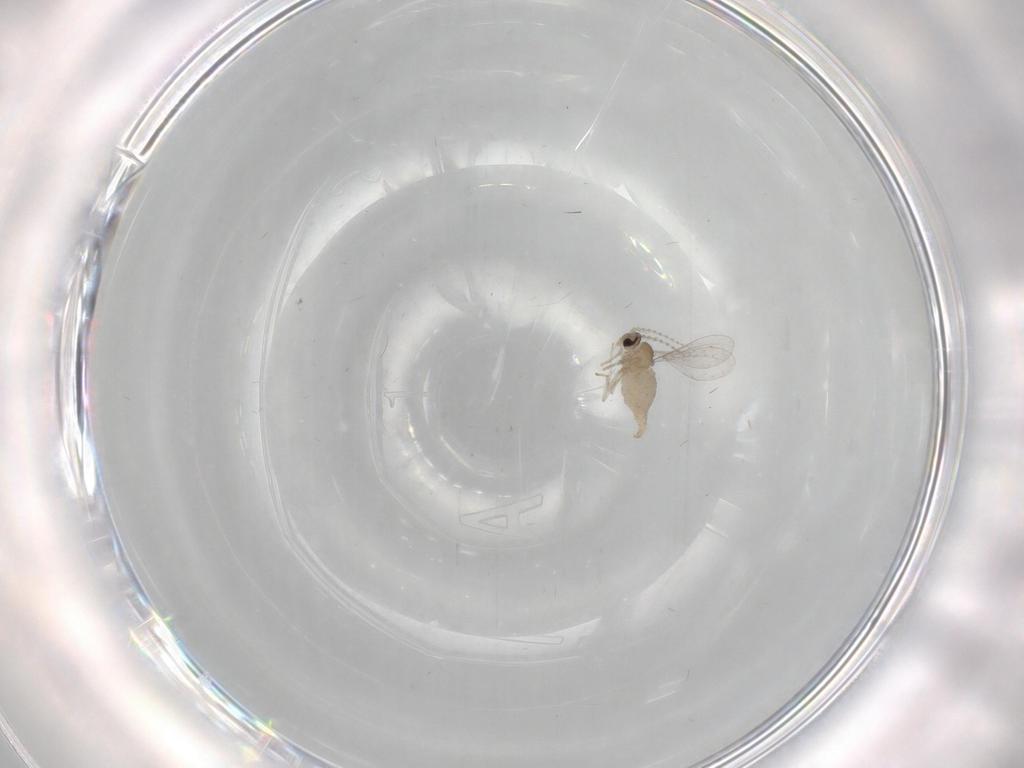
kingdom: Animalia
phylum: Arthropoda
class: Insecta
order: Diptera
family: Cecidomyiidae
